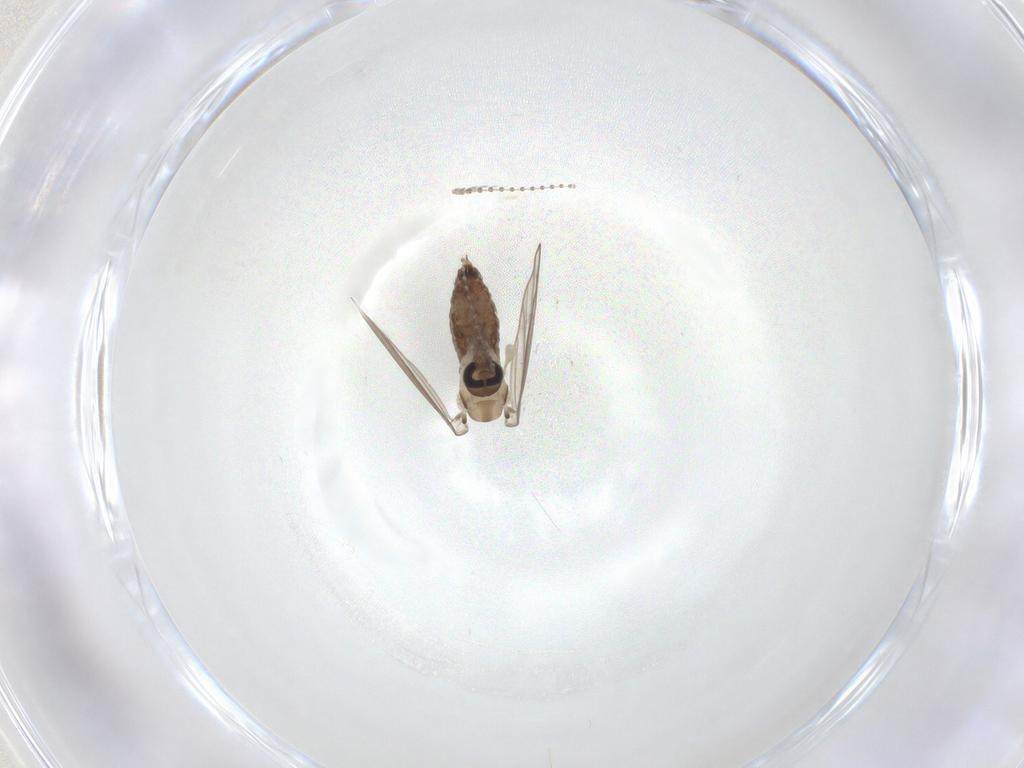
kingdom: Animalia
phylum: Arthropoda
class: Insecta
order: Diptera
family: Psychodidae
